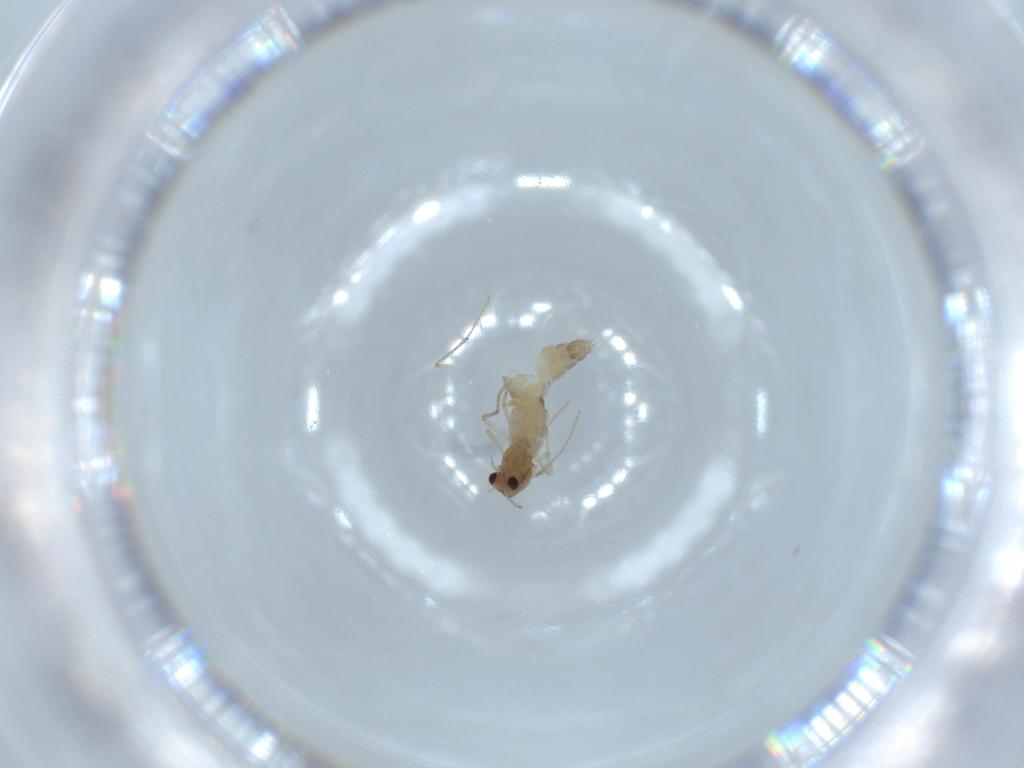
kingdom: Animalia
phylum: Arthropoda
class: Insecta
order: Diptera
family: Chironomidae
